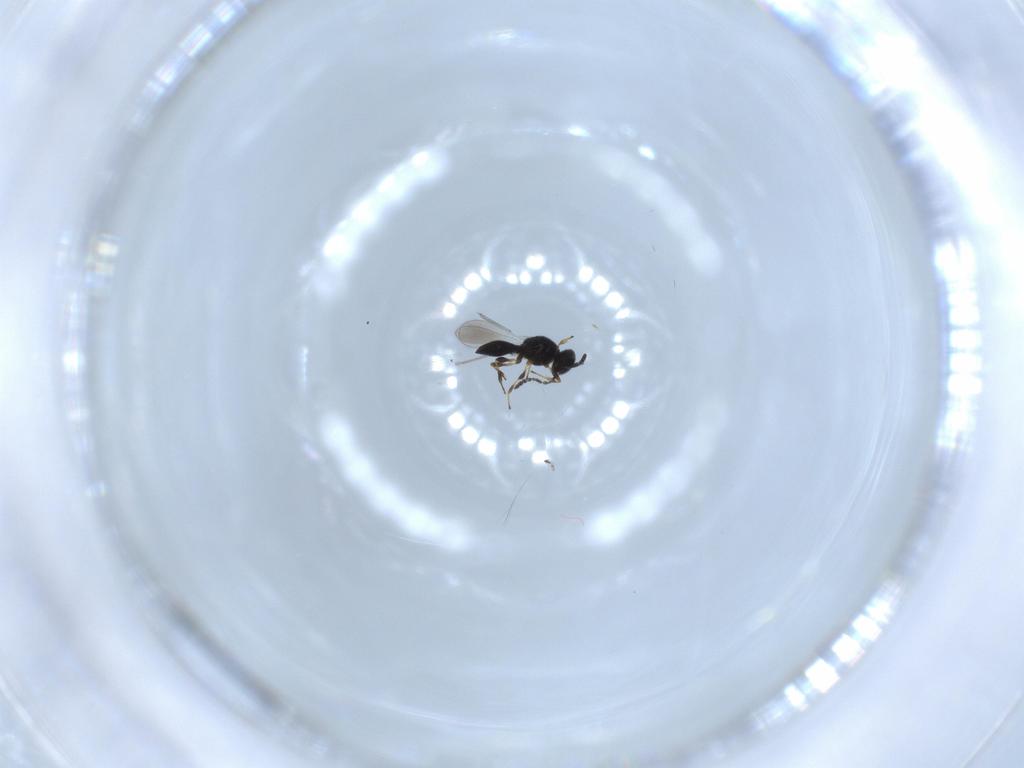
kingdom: Animalia
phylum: Arthropoda
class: Insecta
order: Hymenoptera
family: Platygastridae
